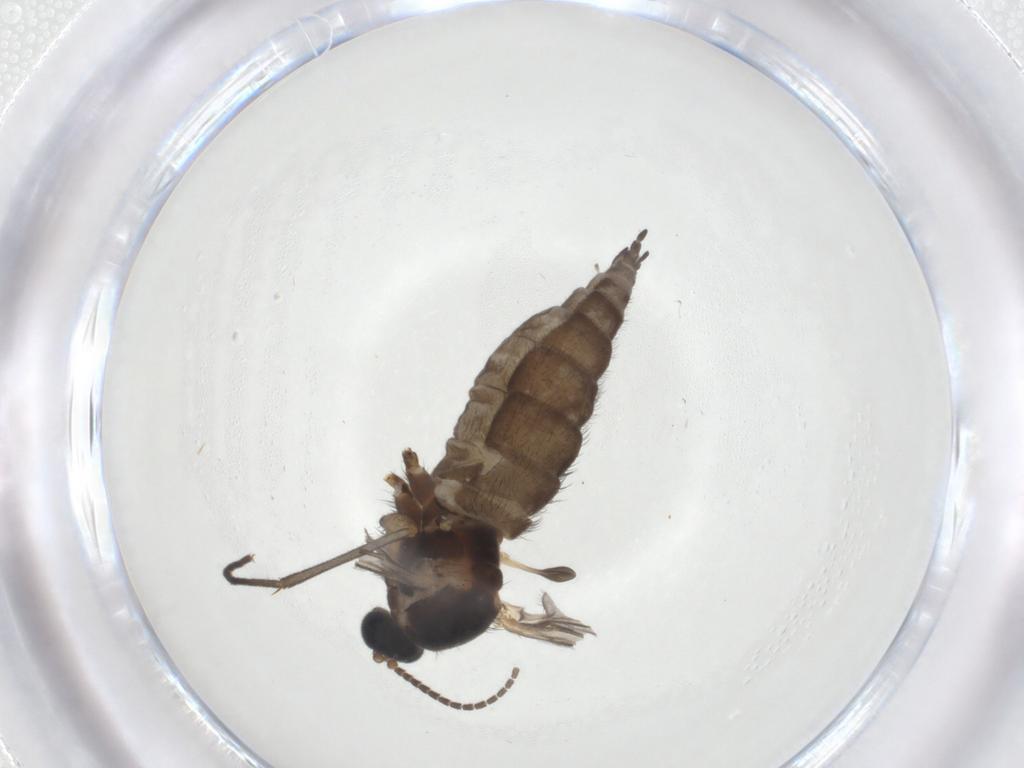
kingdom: Animalia
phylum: Arthropoda
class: Insecta
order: Diptera
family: Sciaridae
